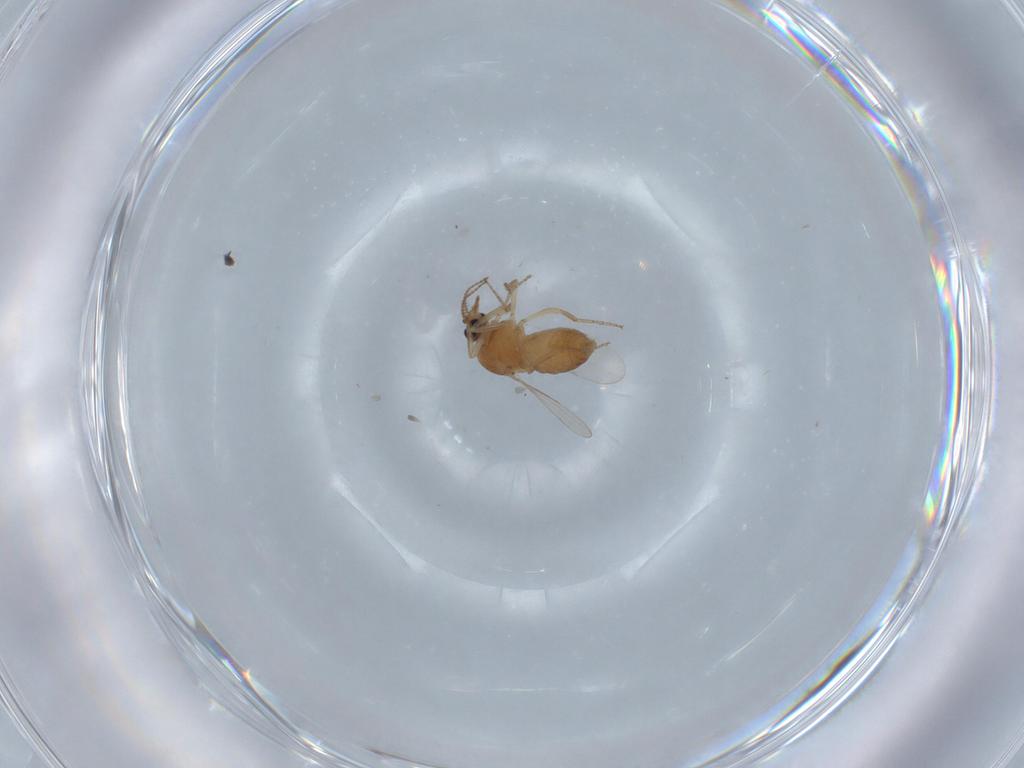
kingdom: Animalia
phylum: Arthropoda
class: Insecta
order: Diptera
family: Ceratopogonidae
